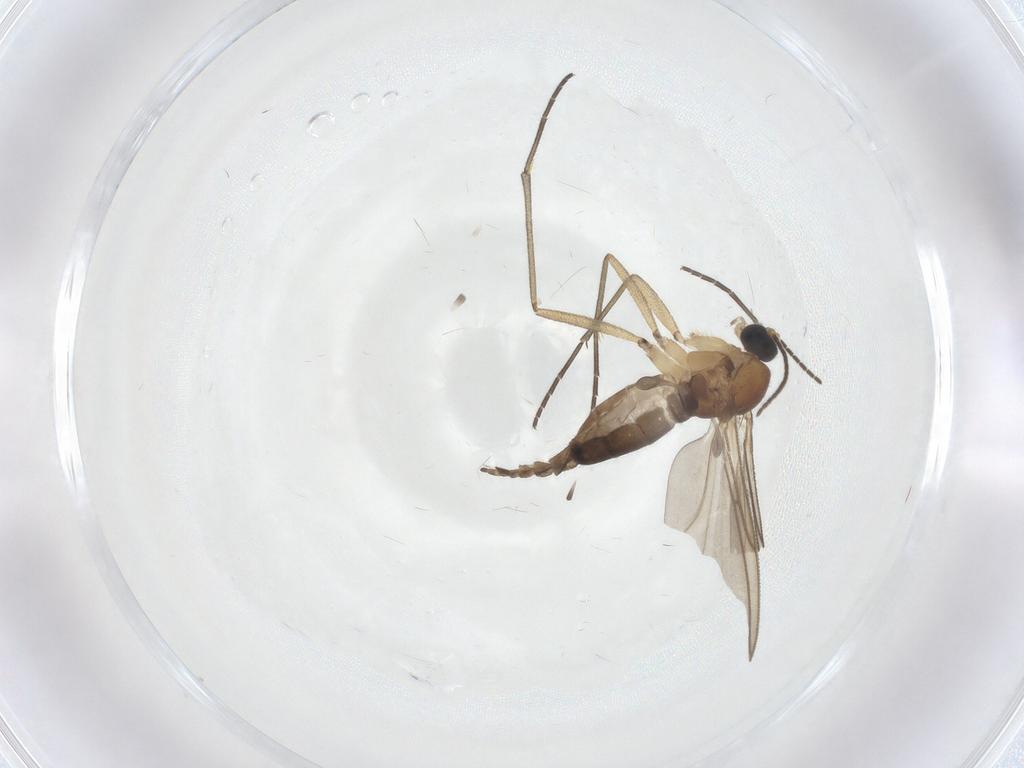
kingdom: Animalia
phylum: Arthropoda
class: Insecta
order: Diptera
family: Sciaridae
